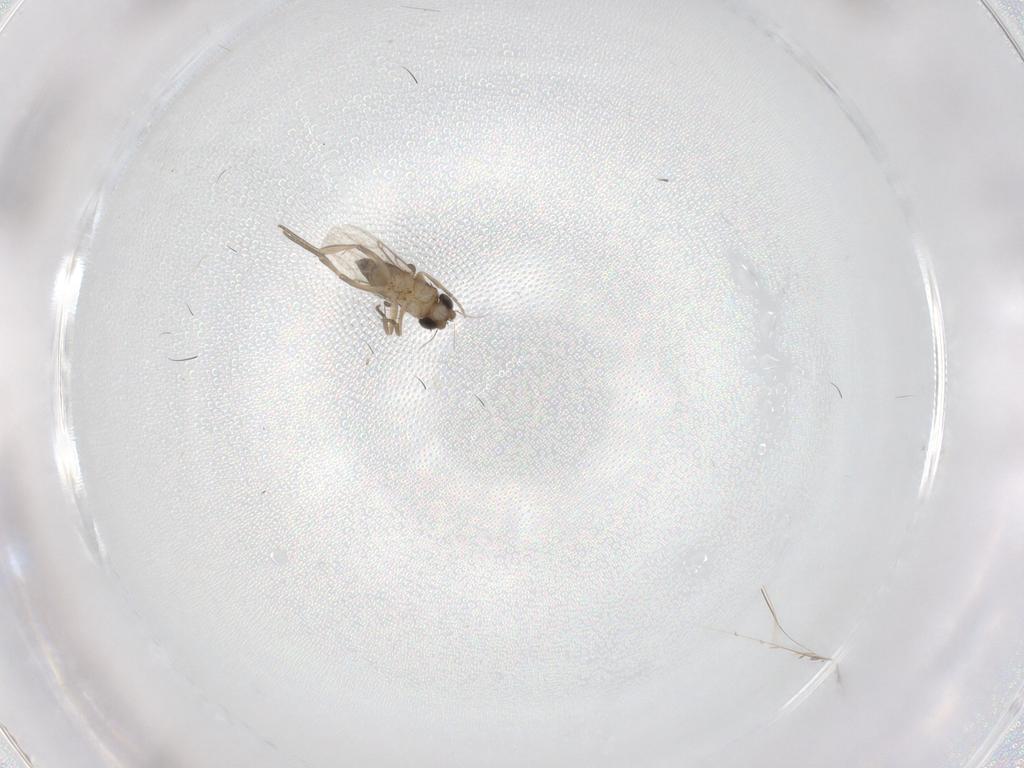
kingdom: Animalia
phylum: Arthropoda
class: Insecta
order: Diptera
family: Phoridae
